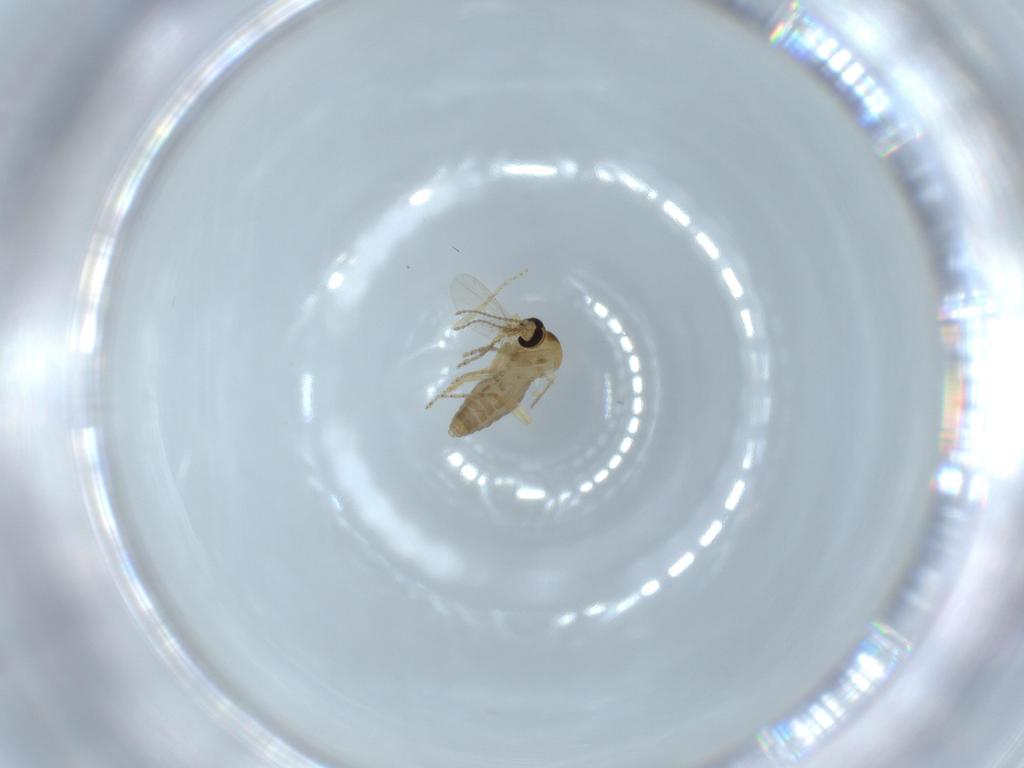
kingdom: Animalia
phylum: Arthropoda
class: Insecta
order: Diptera
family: Ceratopogonidae
